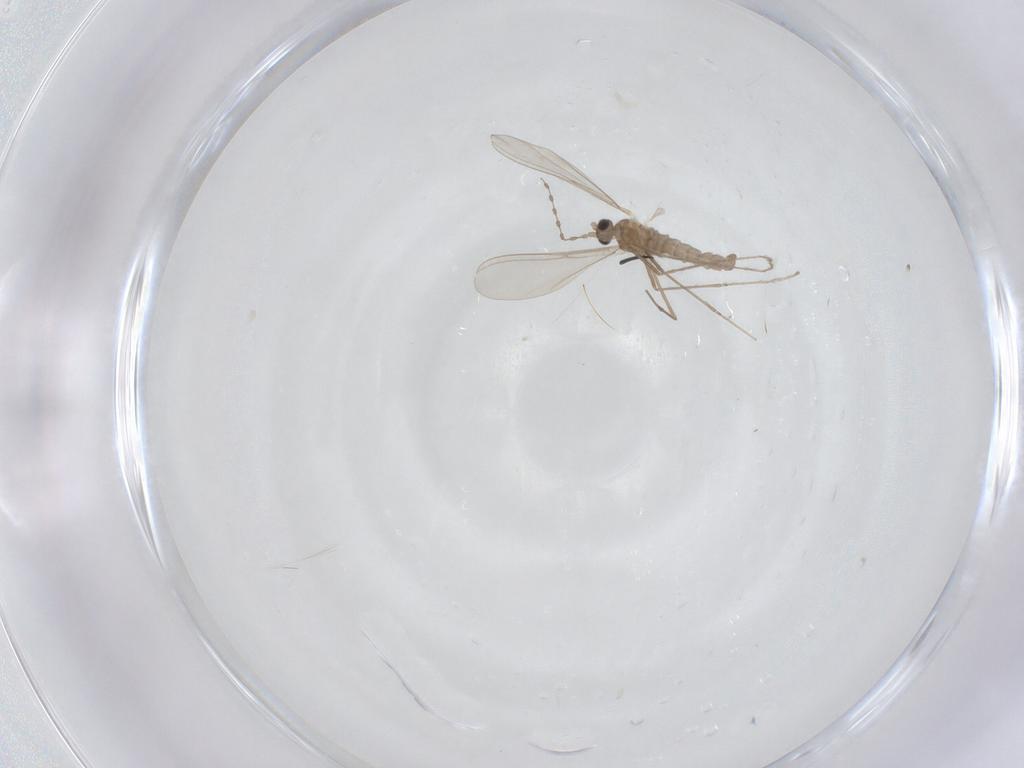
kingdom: Animalia
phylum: Arthropoda
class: Insecta
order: Diptera
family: Cecidomyiidae
